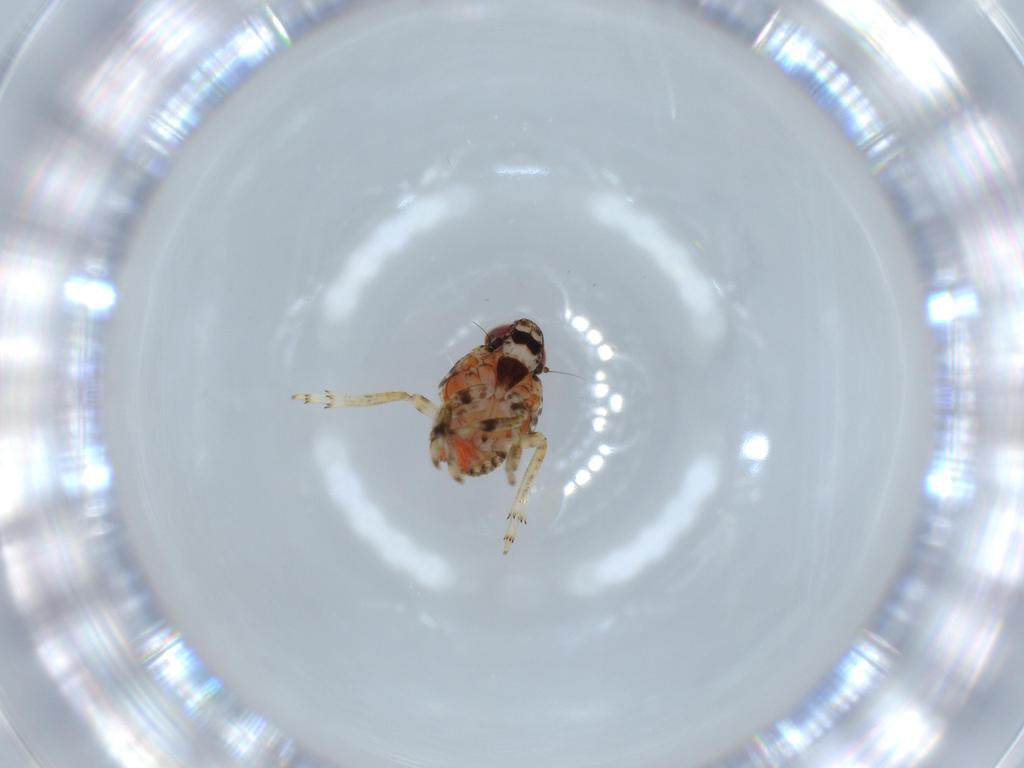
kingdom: Animalia
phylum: Arthropoda
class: Insecta
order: Hemiptera
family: Issidae
